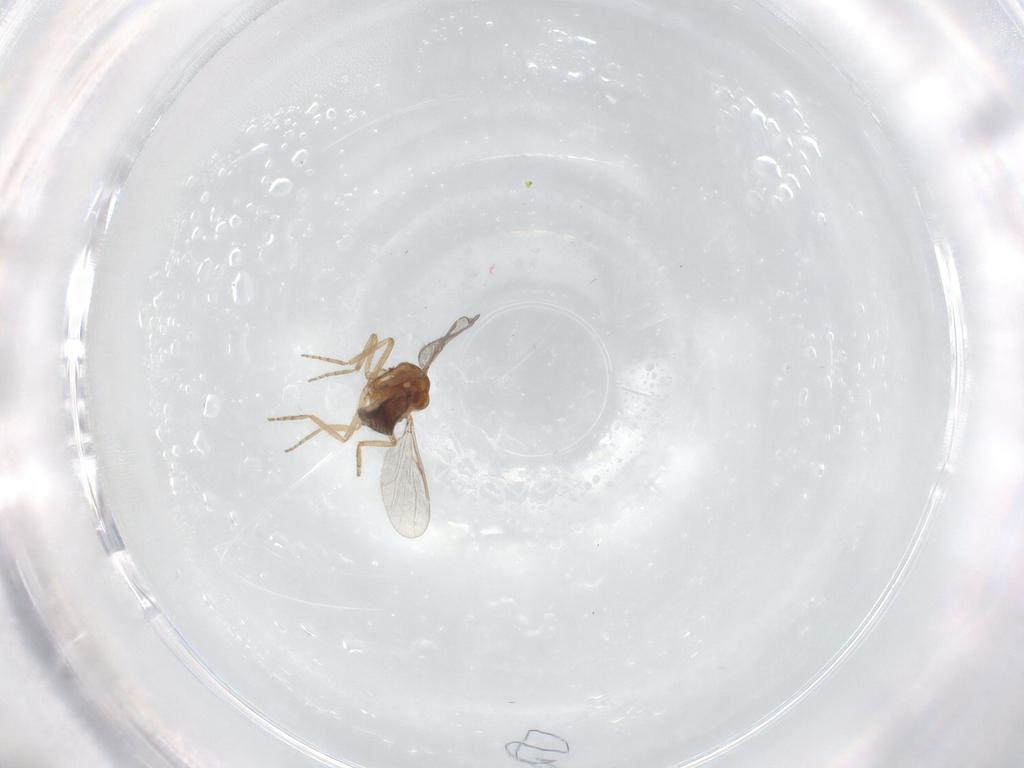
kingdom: Animalia
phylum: Arthropoda
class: Insecta
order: Diptera
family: Ceratopogonidae
